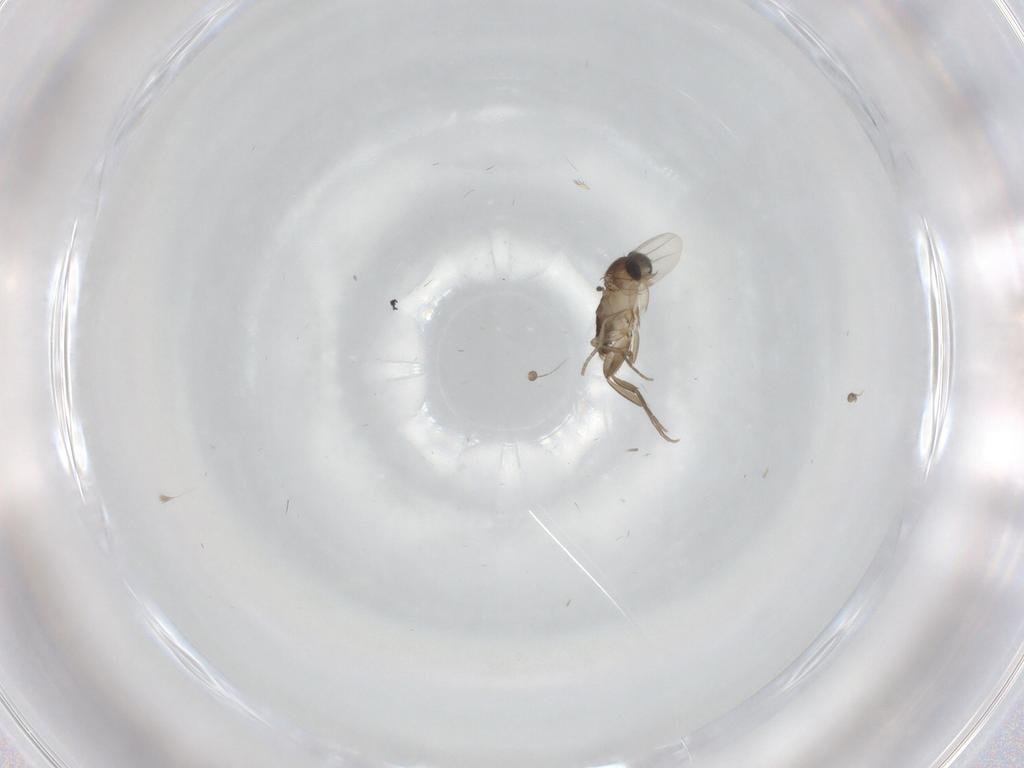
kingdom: Animalia
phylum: Arthropoda
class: Insecta
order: Diptera
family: Phoridae
